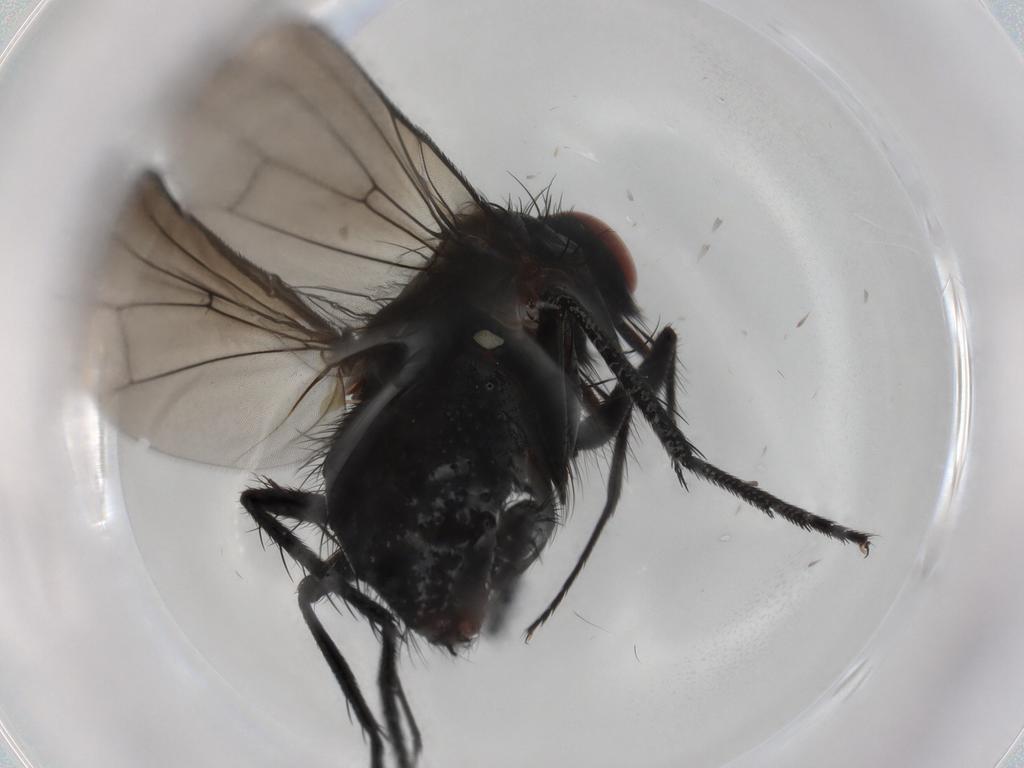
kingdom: Animalia
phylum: Arthropoda
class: Insecta
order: Diptera
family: Anthomyiidae
